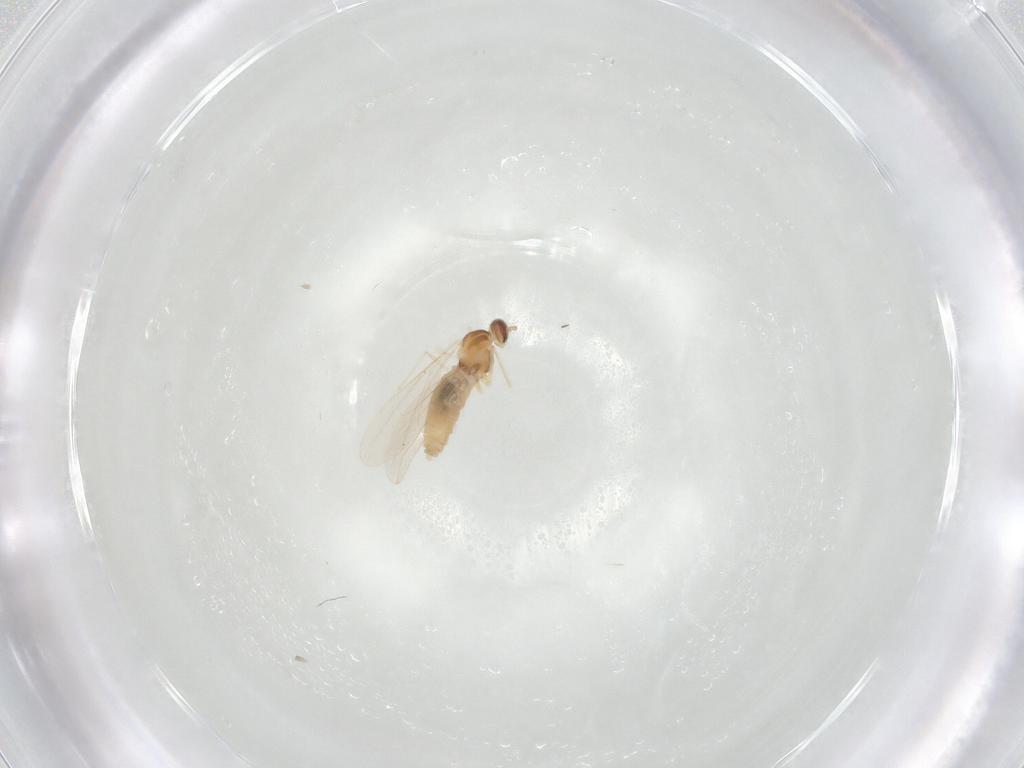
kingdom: Animalia
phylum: Arthropoda
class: Insecta
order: Diptera
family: Cecidomyiidae
